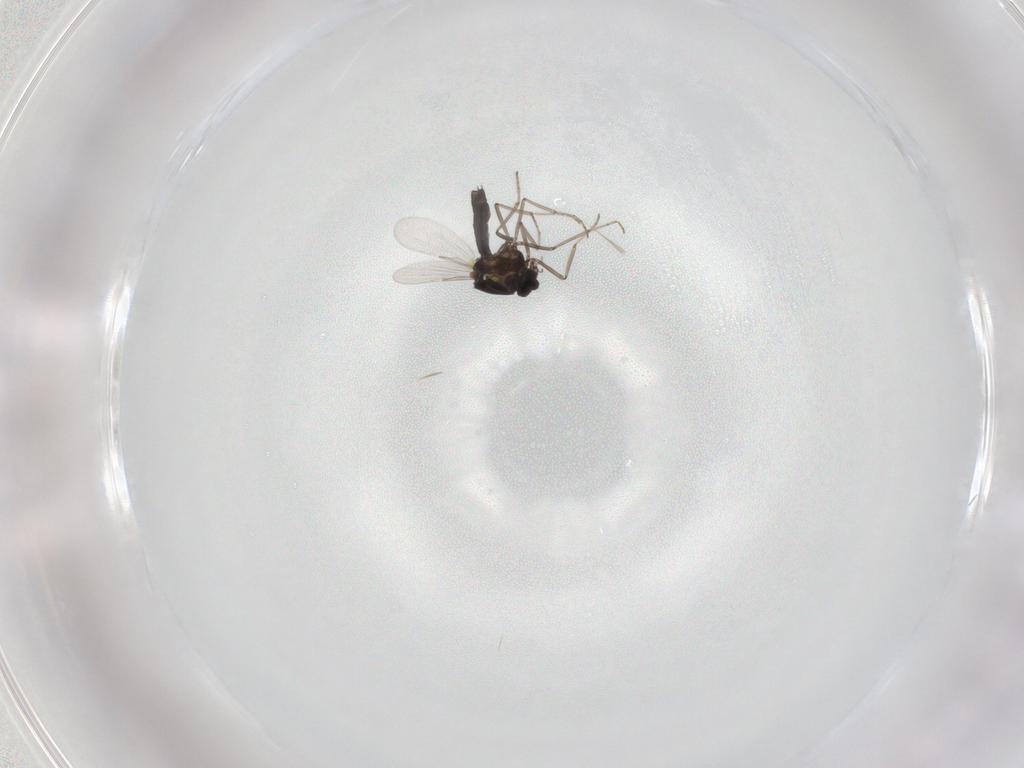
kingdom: Animalia
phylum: Arthropoda
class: Insecta
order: Diptera
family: Ceratopogonidae
